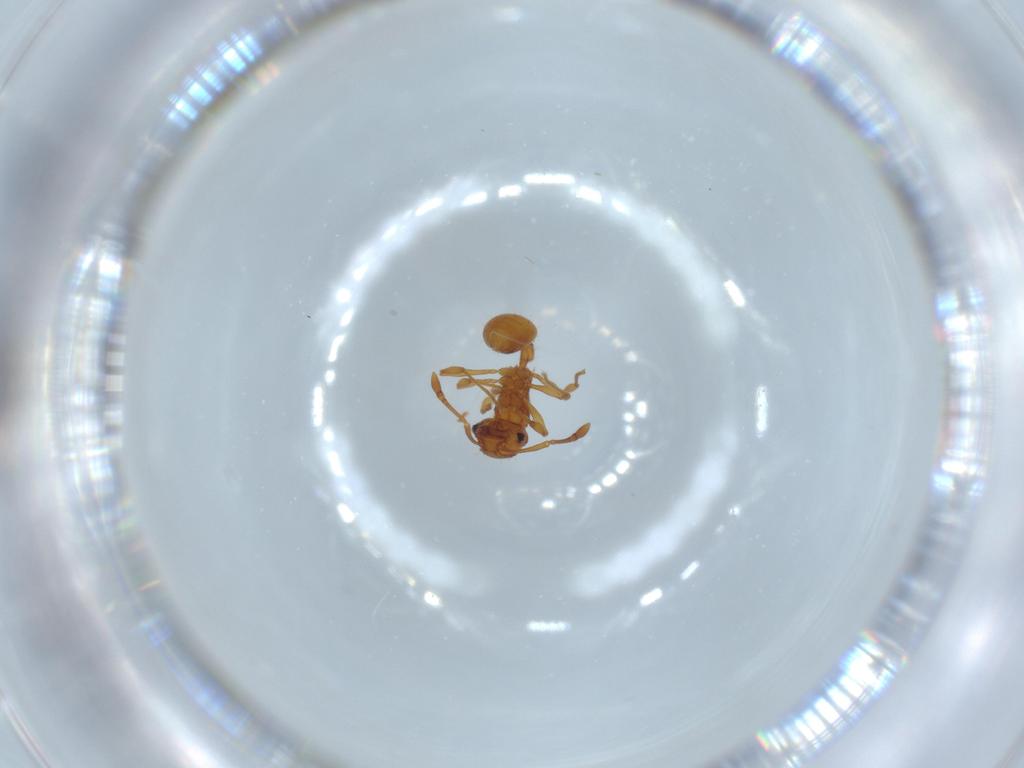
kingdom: Animalia
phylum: Arthropoda
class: Insecta
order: Hymenoptera
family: Formicidae
